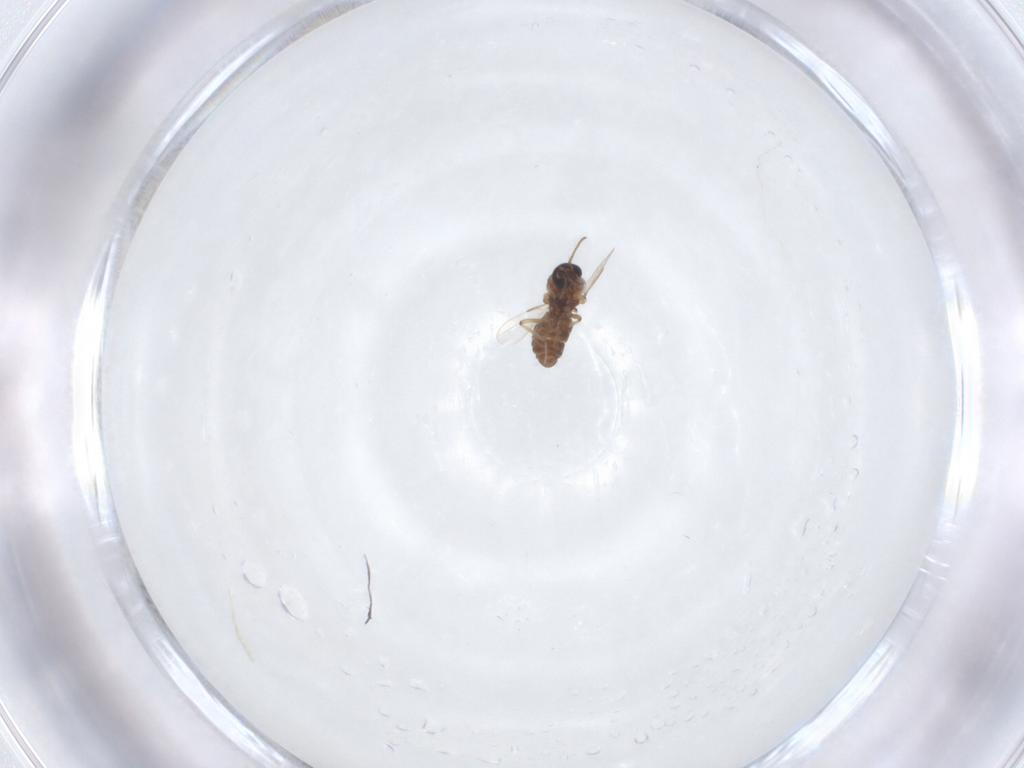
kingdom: Animalia
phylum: Arthropoda
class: Insecta
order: Diptera
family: Ceratopogonidae
